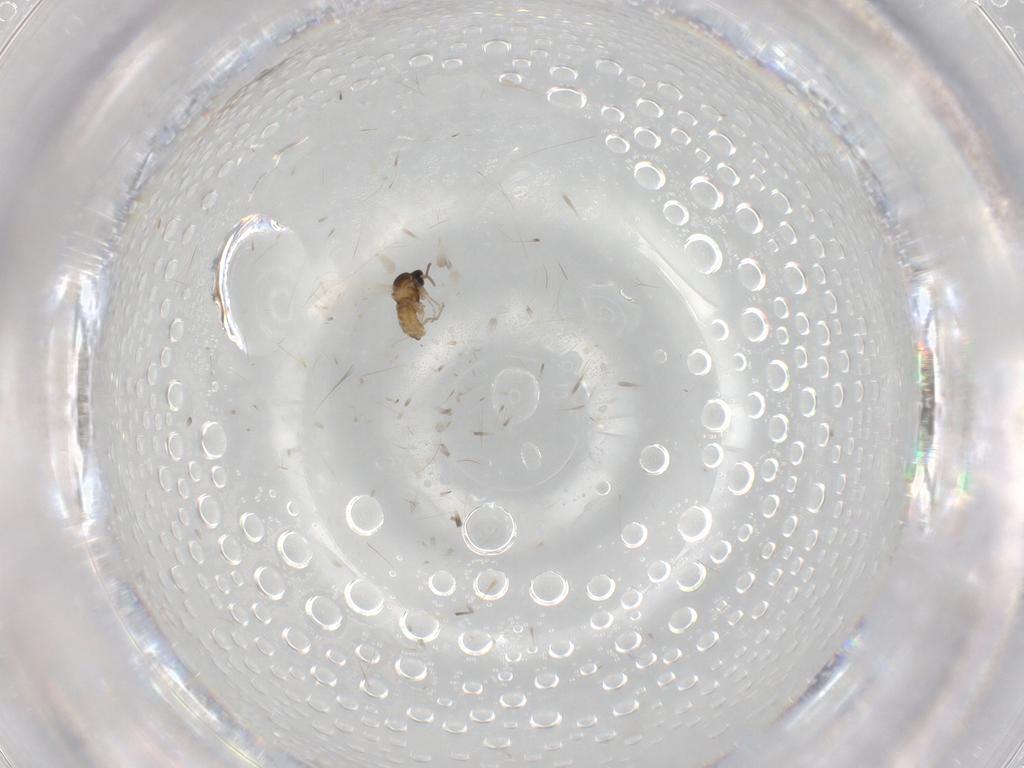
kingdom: Animalia
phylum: Arthropoda
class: Insecta
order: Diptera
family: Cecidomyiidae
